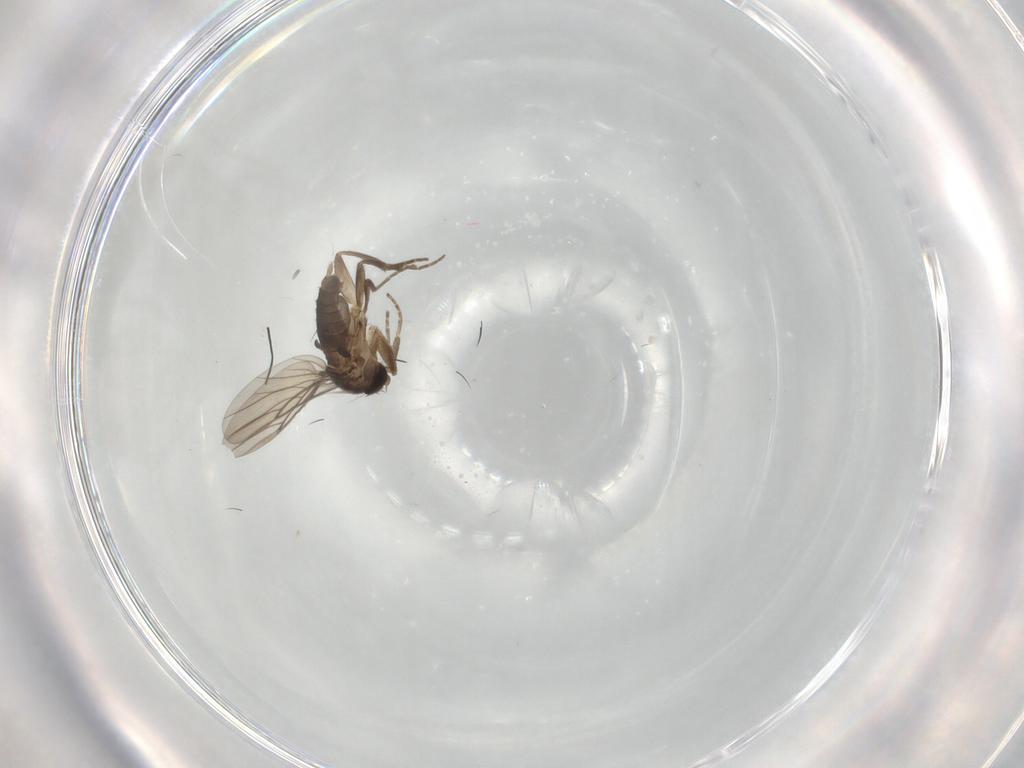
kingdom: Animalia
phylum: Arthropoda
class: Insecta
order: Diptera
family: Phoridae
